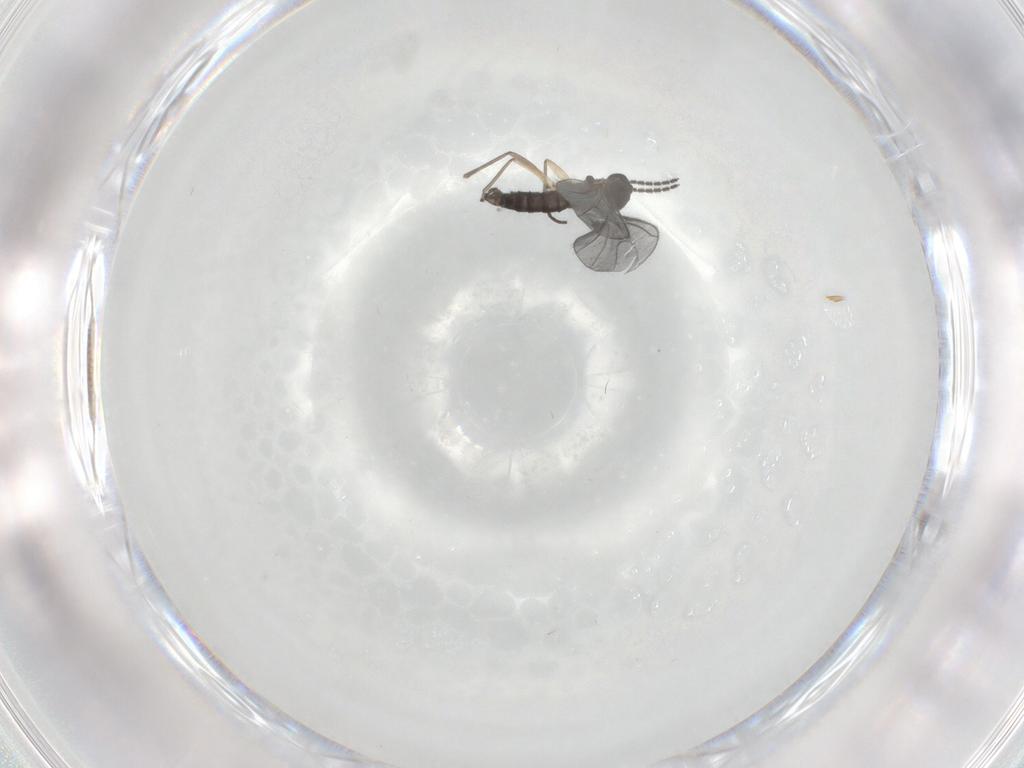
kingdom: Animalia
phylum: Arthropoda
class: Insecta
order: Diptera
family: Sciaridae
